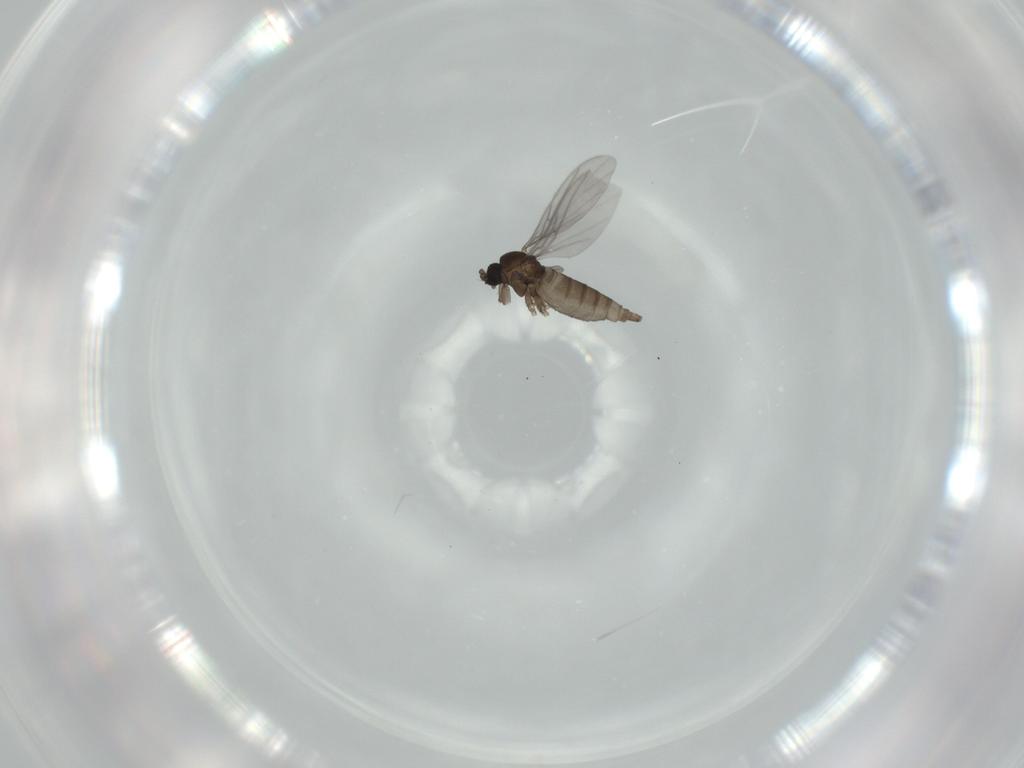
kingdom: Animalia
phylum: Arthropoda
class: Insecta
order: Diptera
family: Sciaridae
